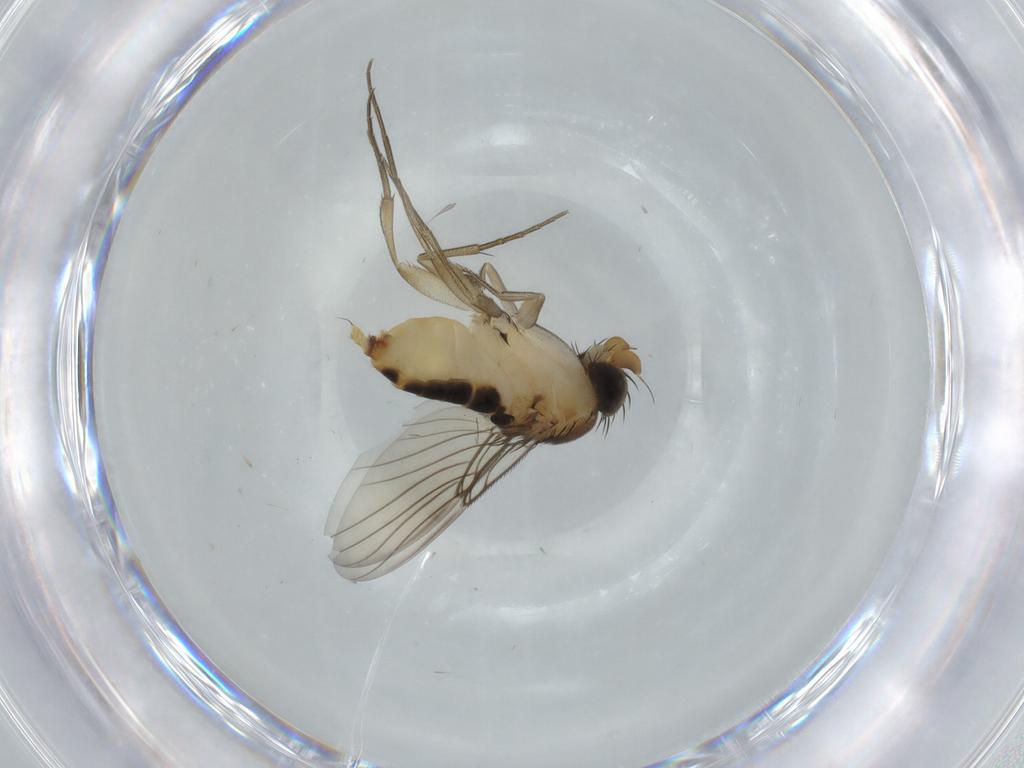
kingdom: Animalia
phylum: Arthropoda
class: Insecta
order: Diptera
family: Phoridae
